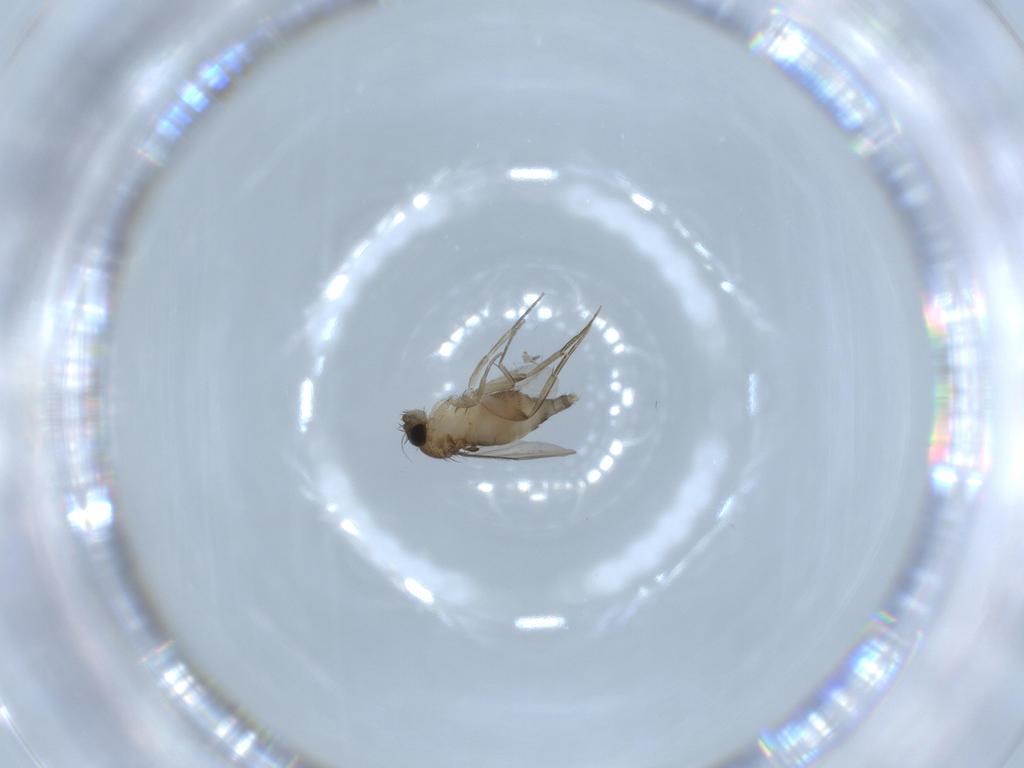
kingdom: Animalia
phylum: Arthropoda
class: Insecta
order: Diptera
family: Phoridae
